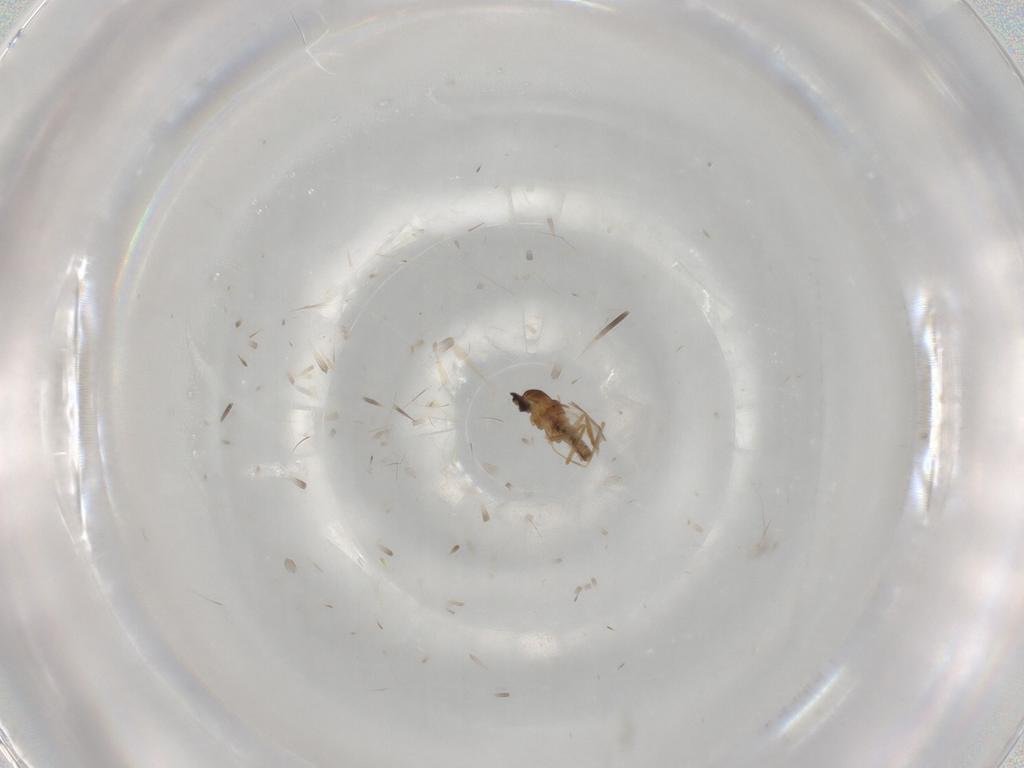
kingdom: Animalia
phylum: Arthropoda
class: Insecta
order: Diptera
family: Cecidomyiidae
